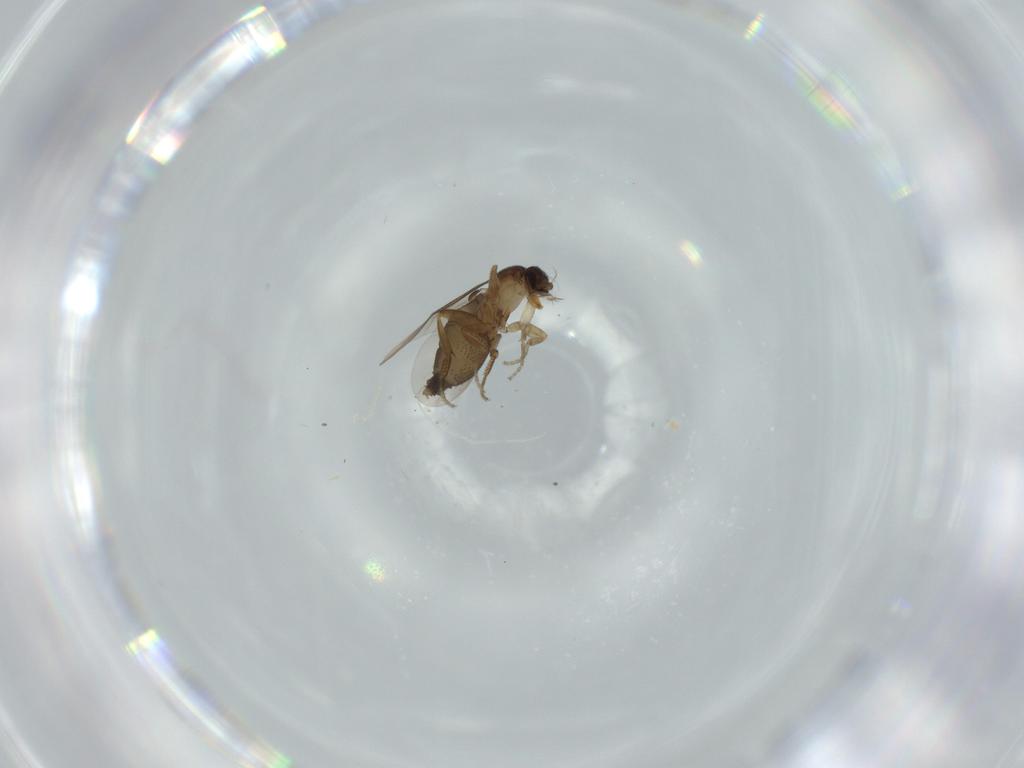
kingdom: Animalia
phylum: Arthropoda
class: Insecta
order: Diptera
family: Phoridae
